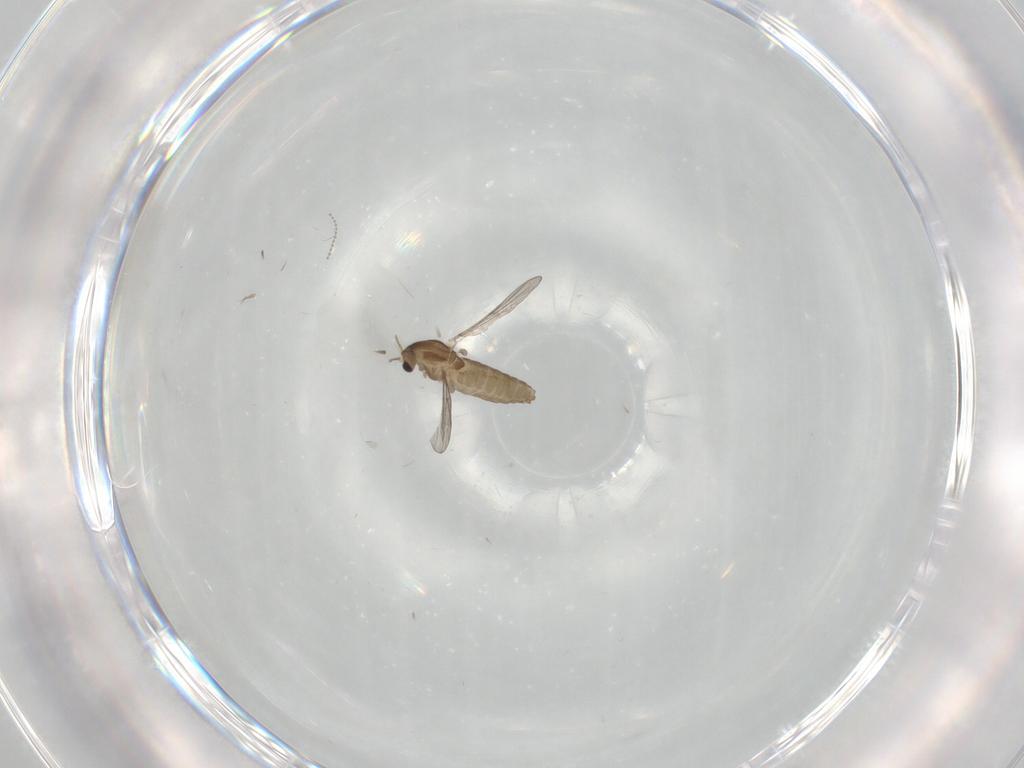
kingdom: Animalia
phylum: Arthropoda
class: Insecta
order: Diptera
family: Chironomidae
